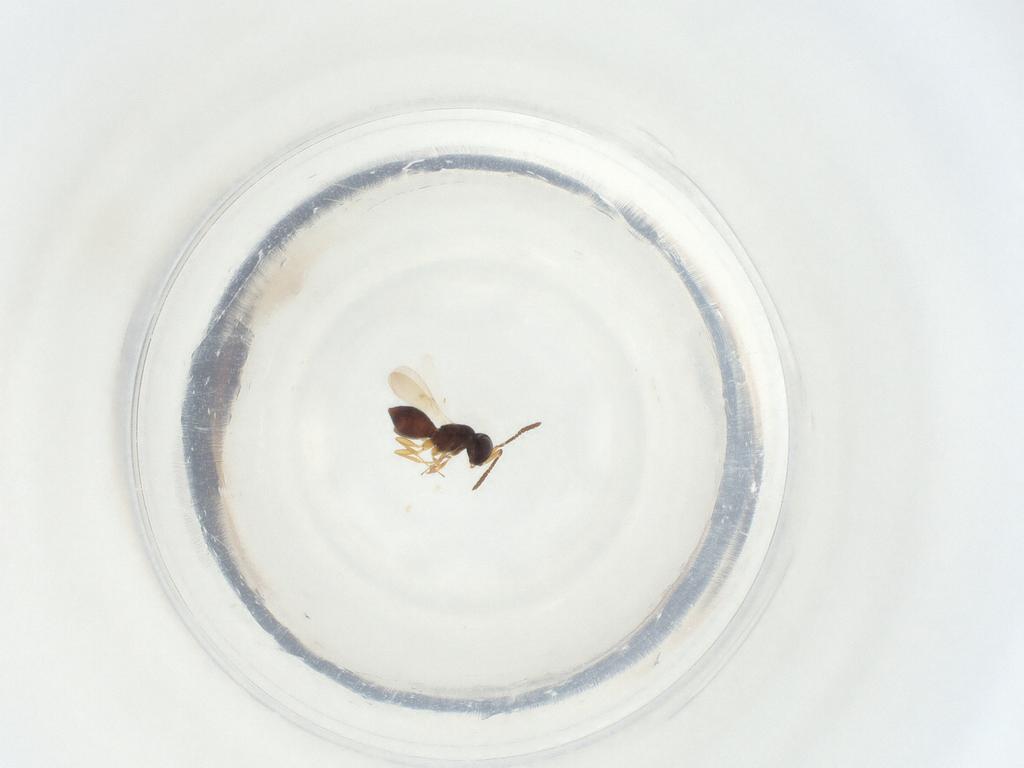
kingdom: Animalia
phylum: Arthropoda
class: Insecta
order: Hymenoptera
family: Scelionidae
